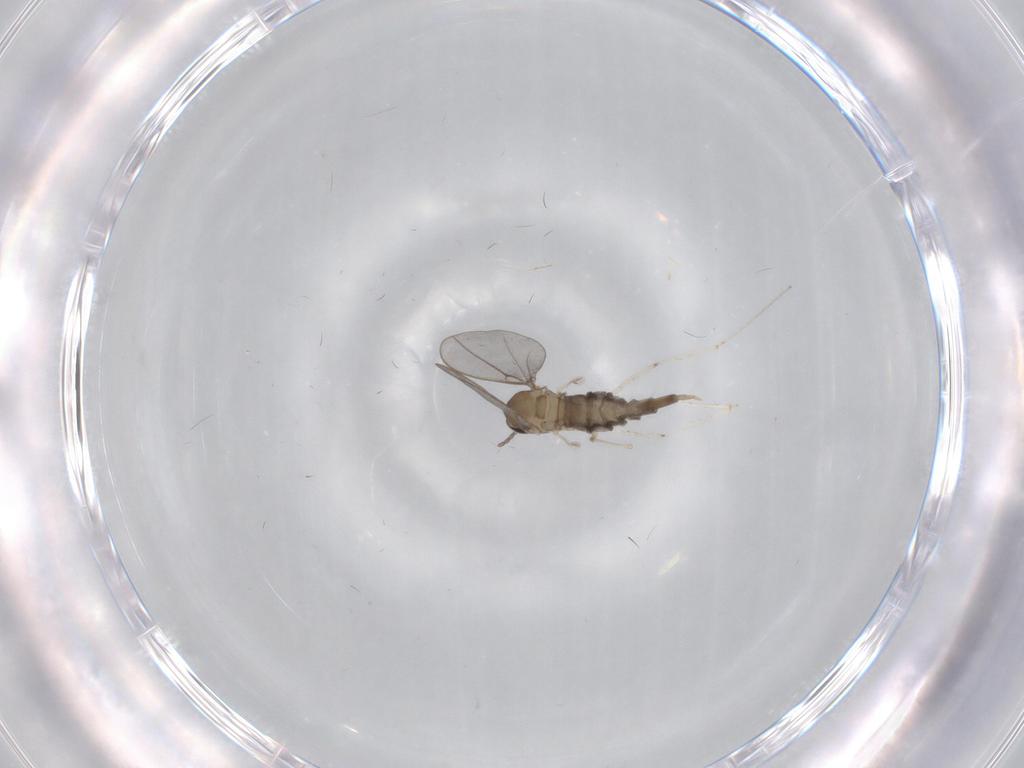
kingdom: Animalia
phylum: Arthropoda
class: Insecta
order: Diptera
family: Cecidomyiidae
